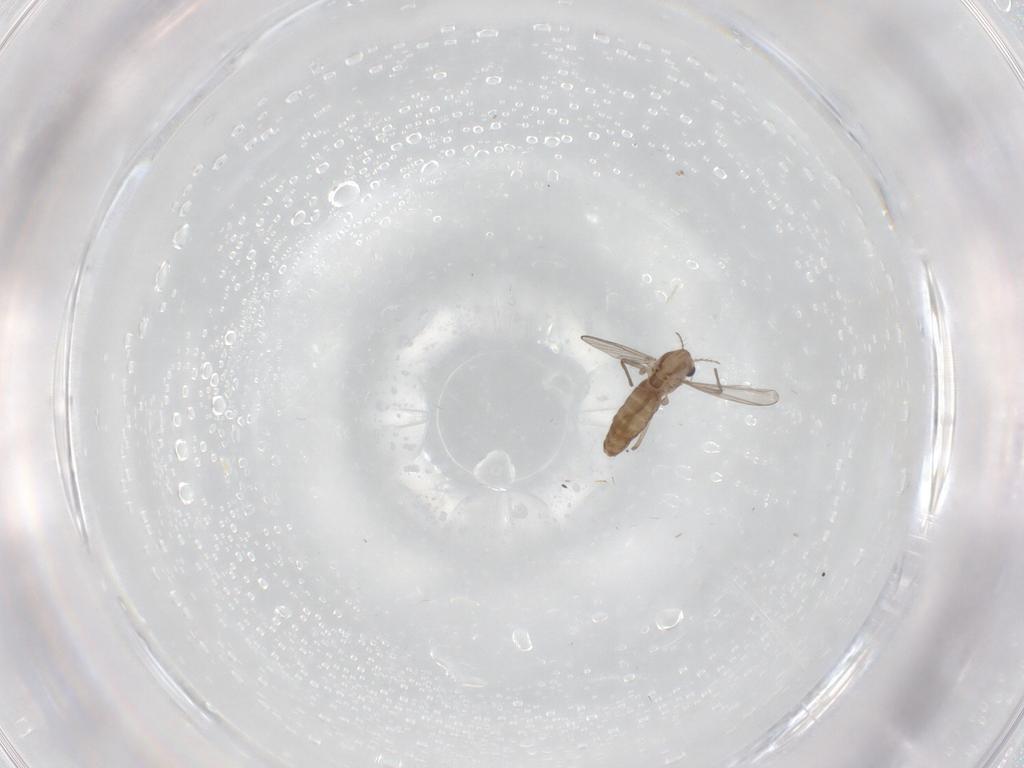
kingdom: Animalia
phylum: Arthropoda
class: Insecta
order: Diptera
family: Chironomidae
